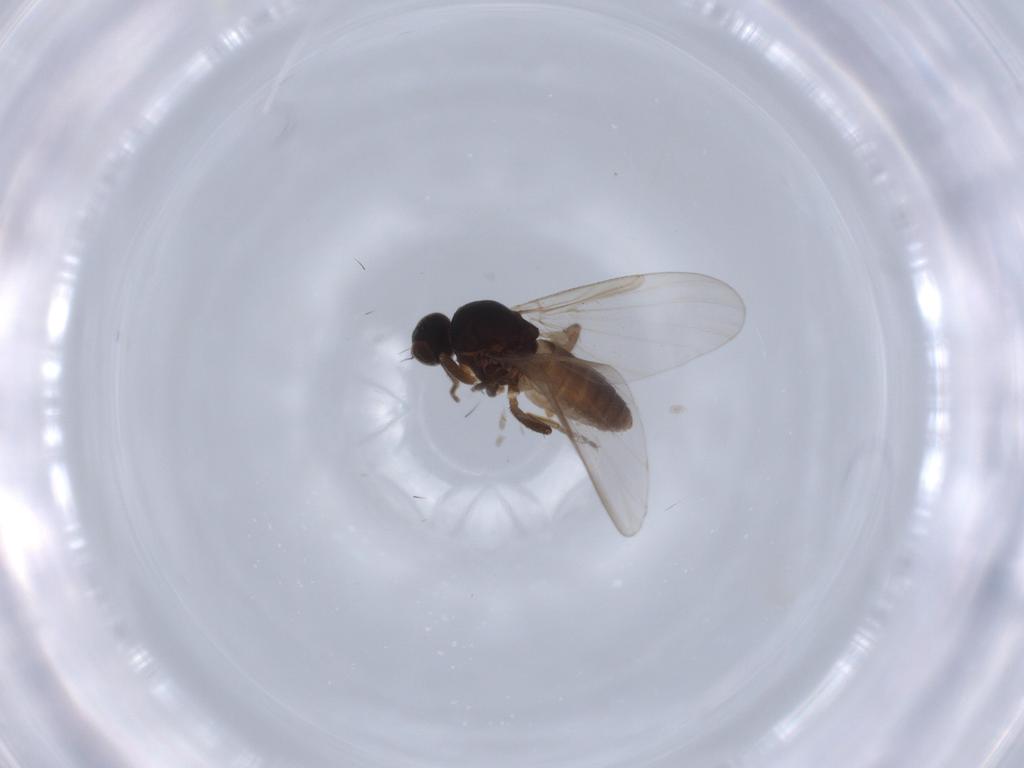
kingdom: Animalia
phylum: Arthropoda
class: Insecta
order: Diptera
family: Platypezidae
